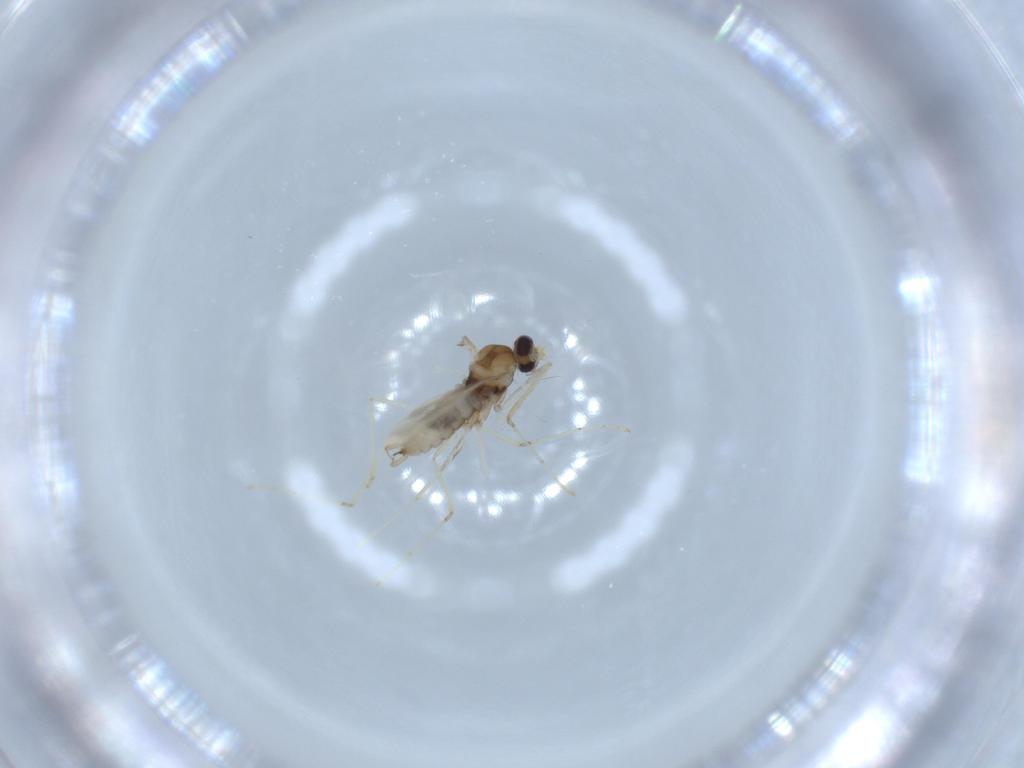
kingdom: Animalia
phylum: Arthropoda
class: Insecta
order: Diptera
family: Cecidomyiidae
